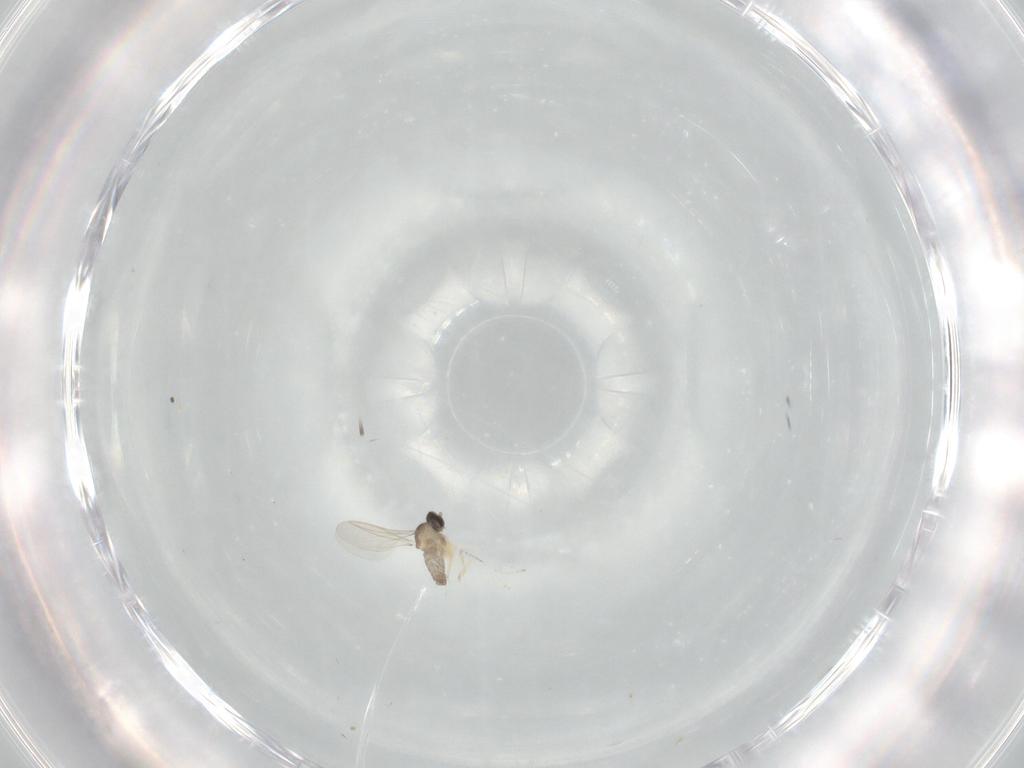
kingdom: Animalia
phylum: Arthropoda
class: Insecta
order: Diptera
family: Cecidomyiidae
